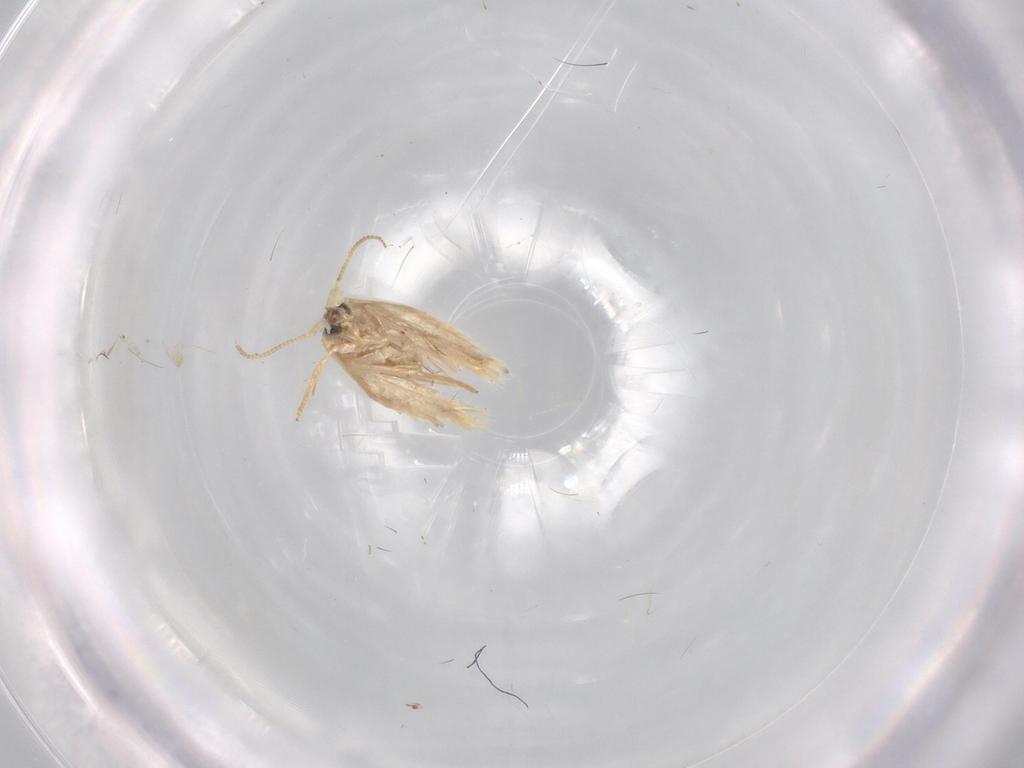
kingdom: Animalia
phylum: Arthropoda
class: Insecta
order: Lepidoptera
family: Nepticulidae
